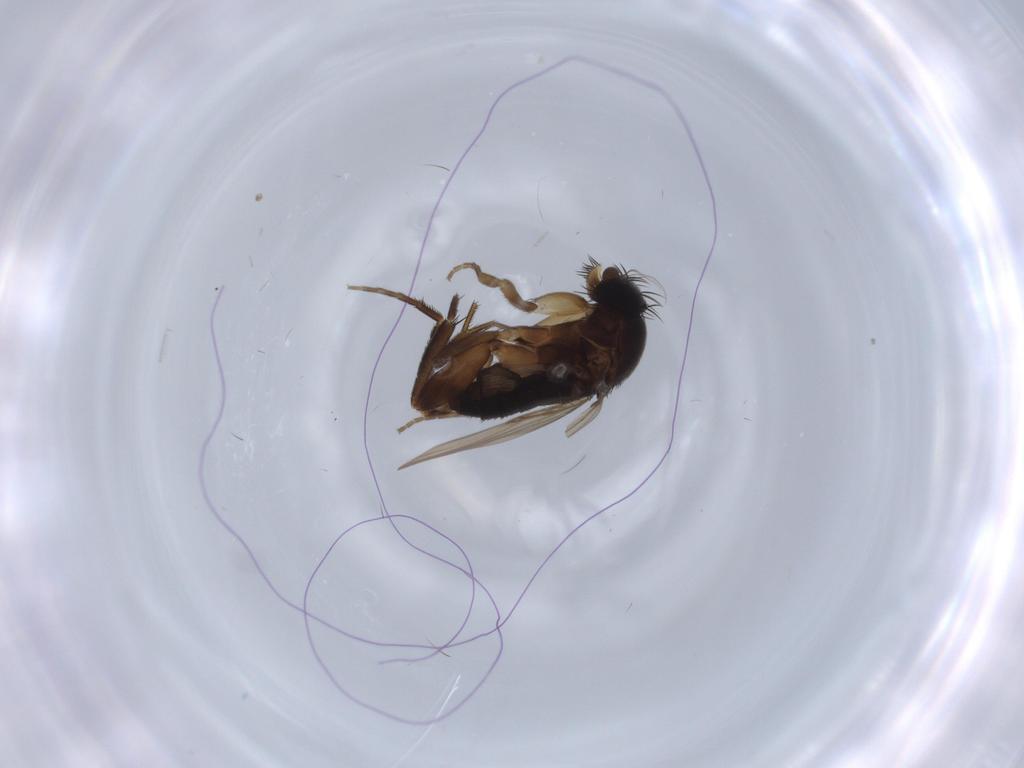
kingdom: Animalia
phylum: Arthropoda
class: Insecta
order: Diptera
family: Phoridae
